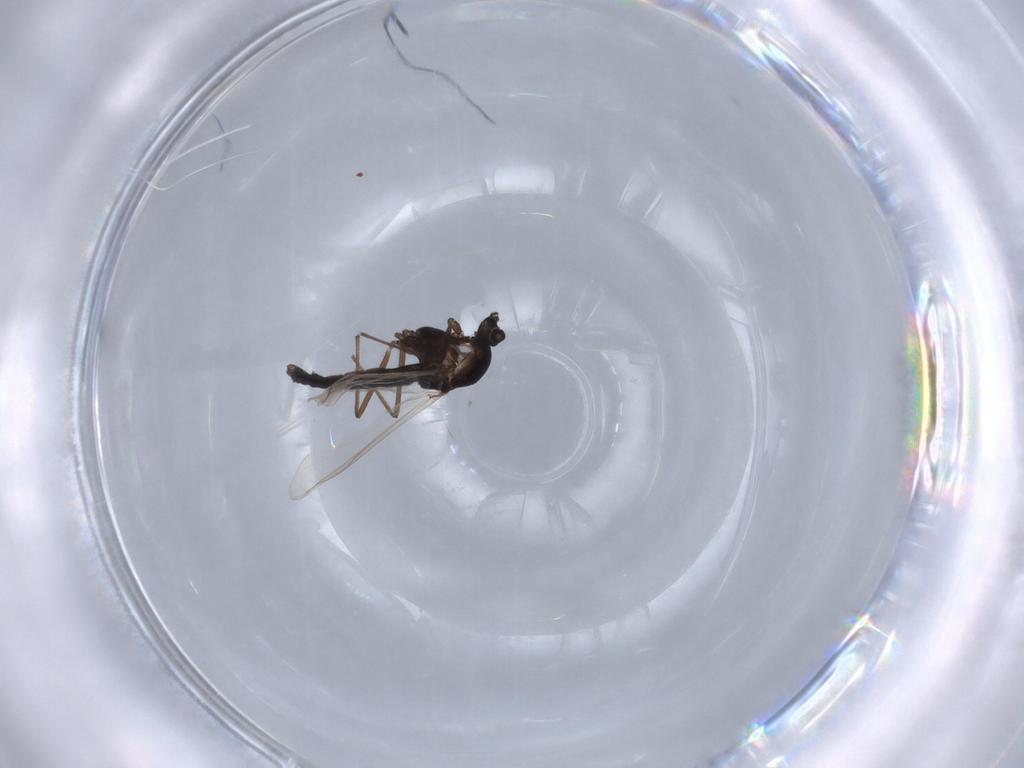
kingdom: Animalia
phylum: Arthropoda
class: Insecta
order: Diptera
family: Chironomidae
